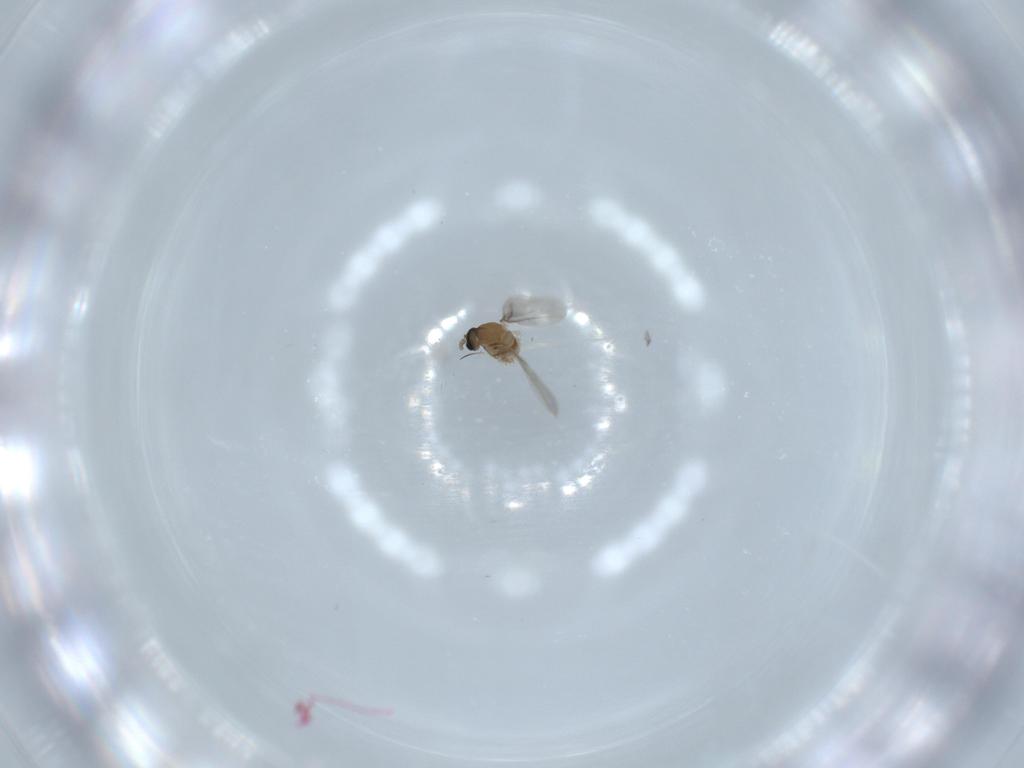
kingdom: Animalia
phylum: Arthropoda
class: Insecta
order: Diptera
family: Cecidomyiidae
